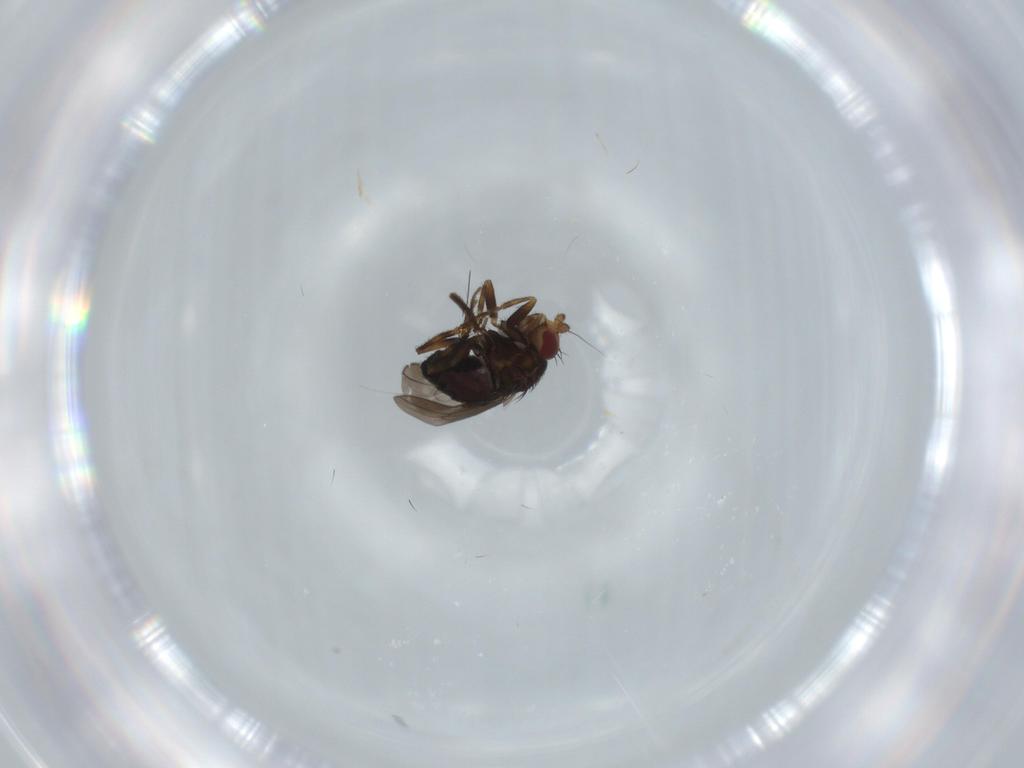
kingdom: Animalia
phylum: Arthropoda
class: Insecta
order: Diptera
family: Sphaeroceridae
